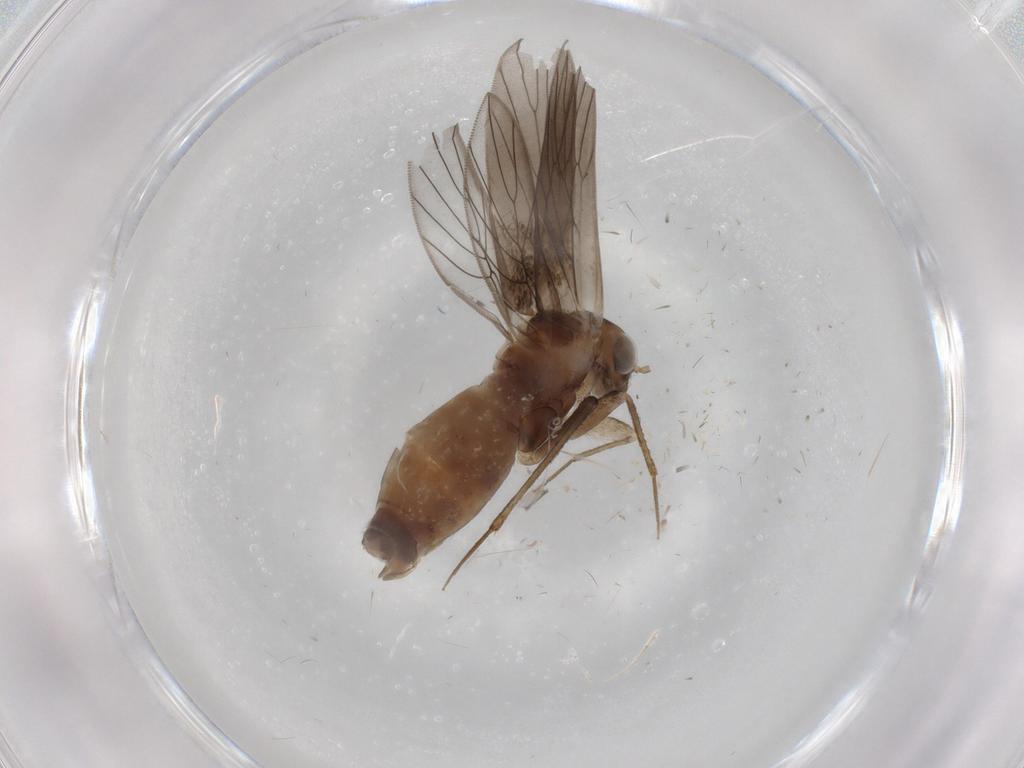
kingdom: Animalia
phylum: Arthropoda
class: Insecta
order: Psocodea
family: Lepidopsocidae
